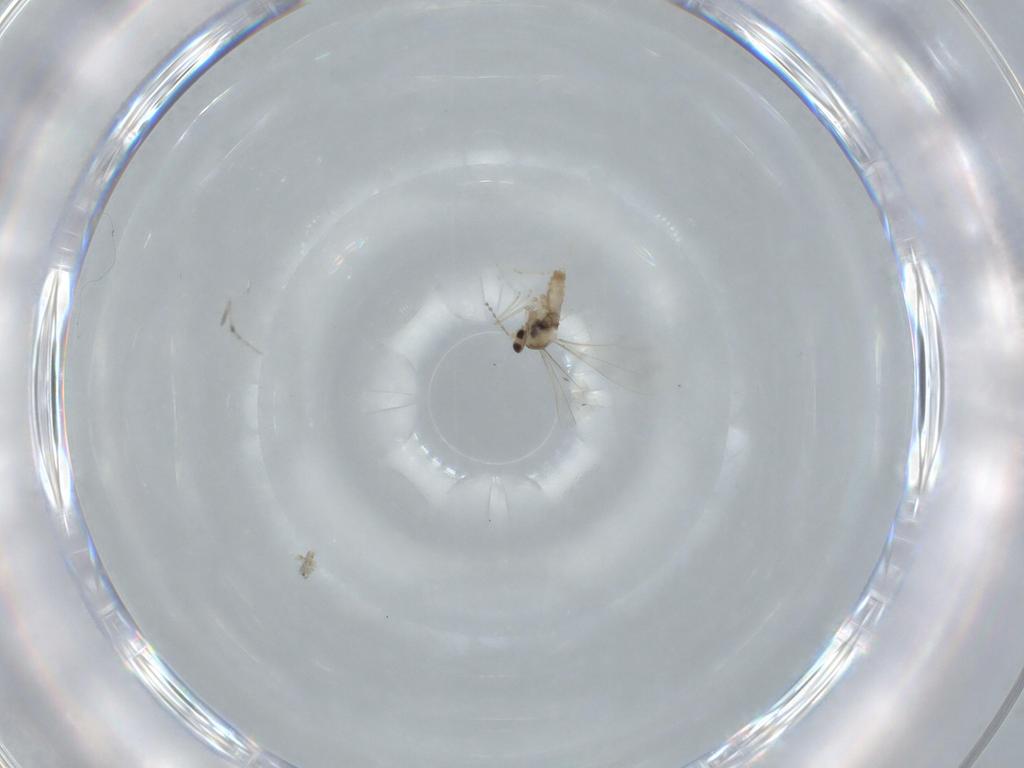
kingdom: Animalia
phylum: Arthropoda
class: Insecta
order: Diptera
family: Cecidomyiidae
